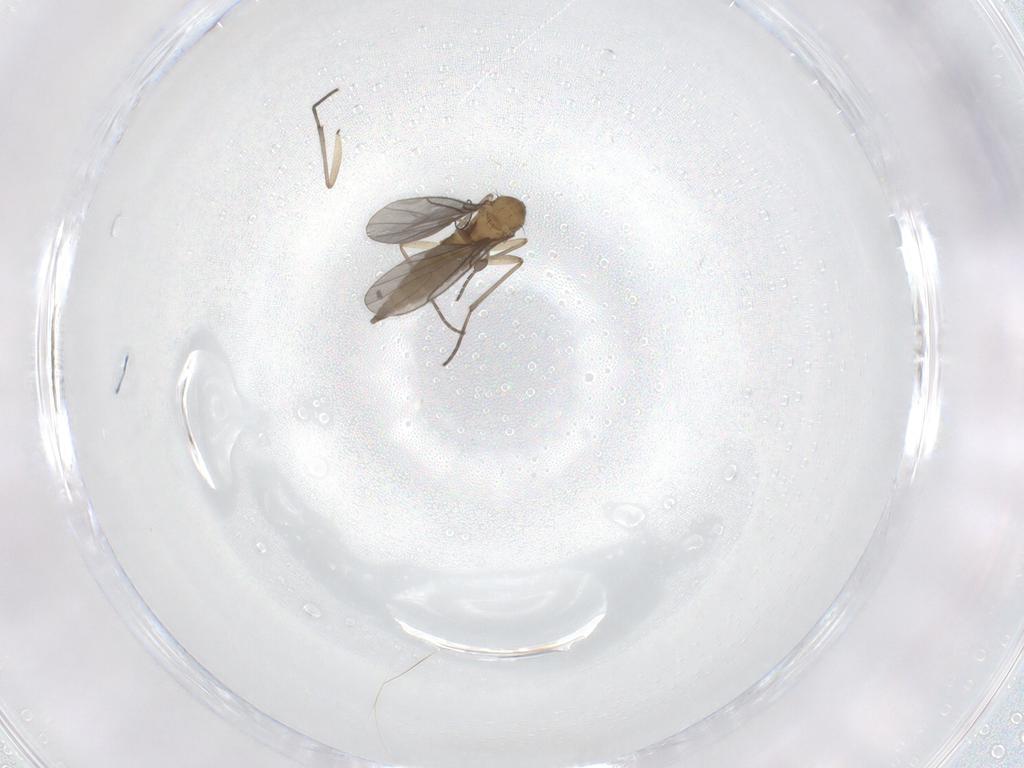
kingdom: Animalia
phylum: Arthropoda
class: Insecta
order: Diptera
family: Sciaridae
